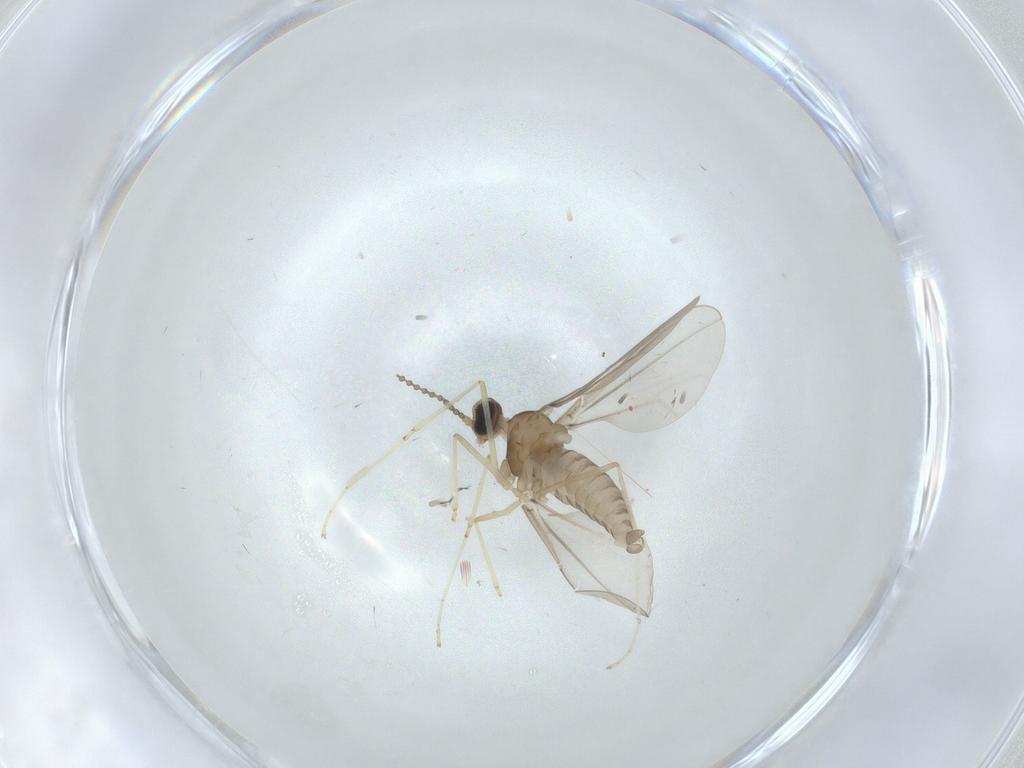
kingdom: Animalia
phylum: Arthropoda
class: Insecta
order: Diptera
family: Cecidomyiidae
